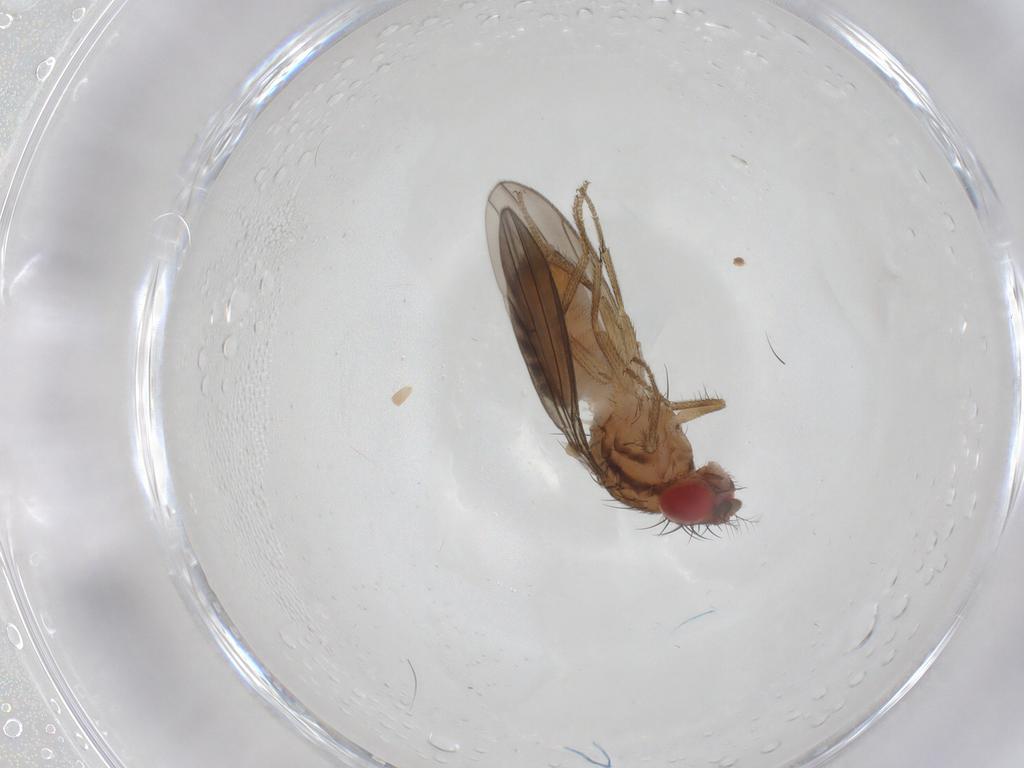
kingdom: Animalia
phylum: Arthropoda
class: Insecta
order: Diptera
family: Drosophilidae
